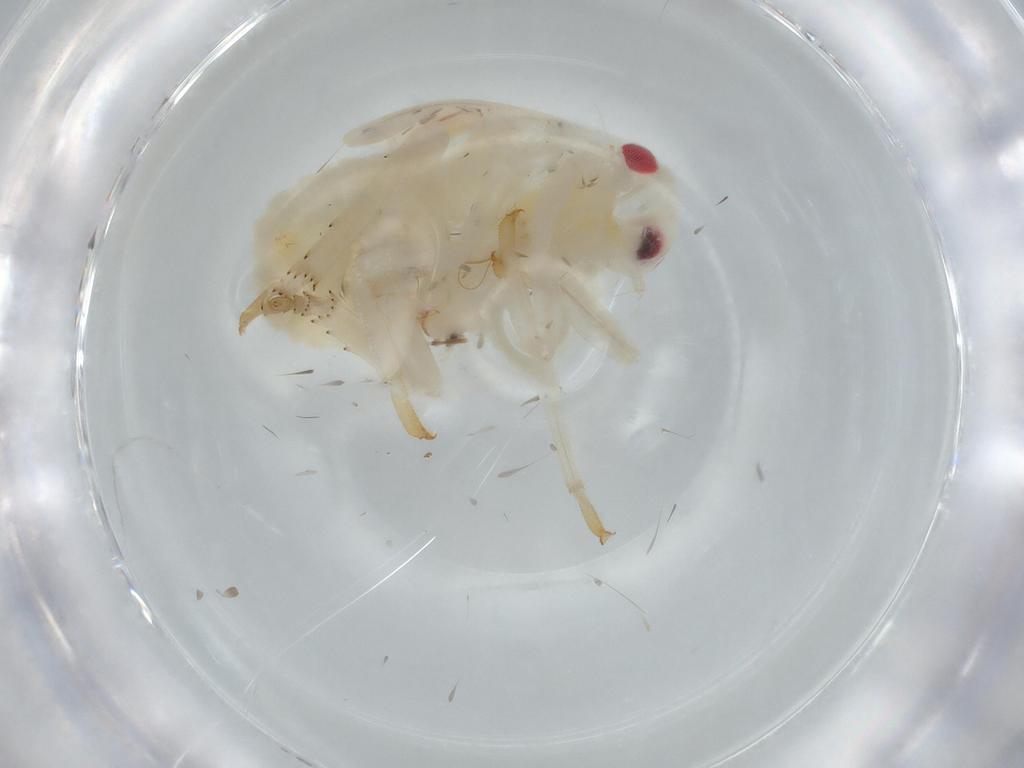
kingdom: Animalia
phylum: Arthropoda
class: Insecta
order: Hemiptera
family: Flatidae
